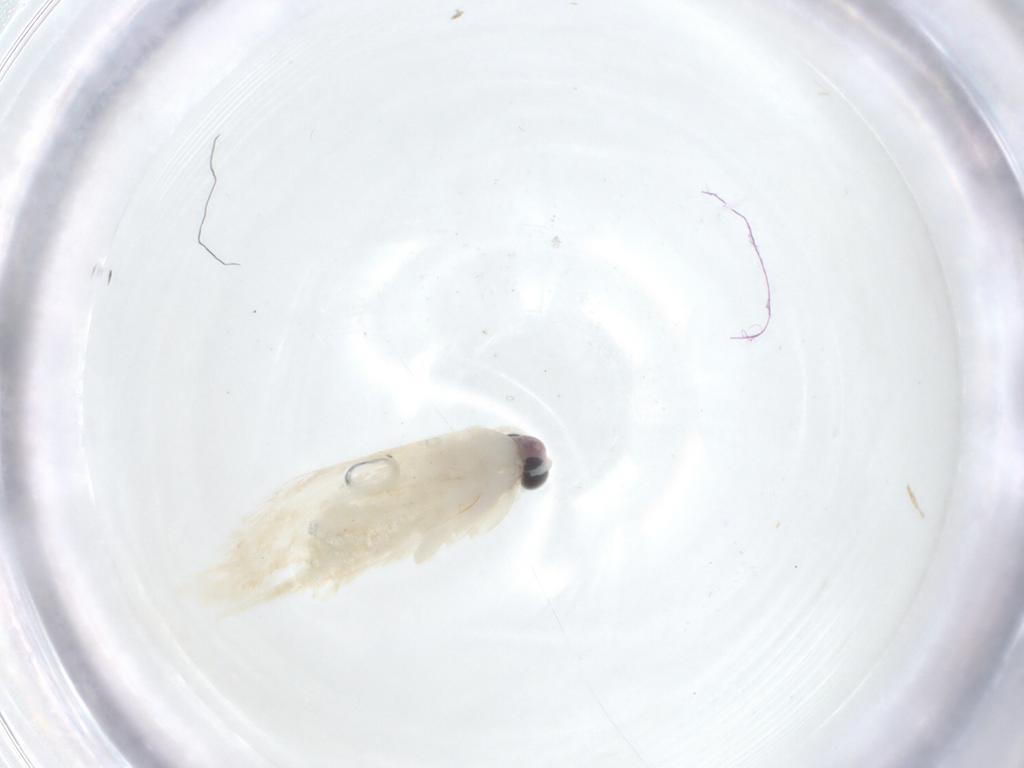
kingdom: Animalia
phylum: Arthropoda
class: Insecta
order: Lepidoptera
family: Tineidae
